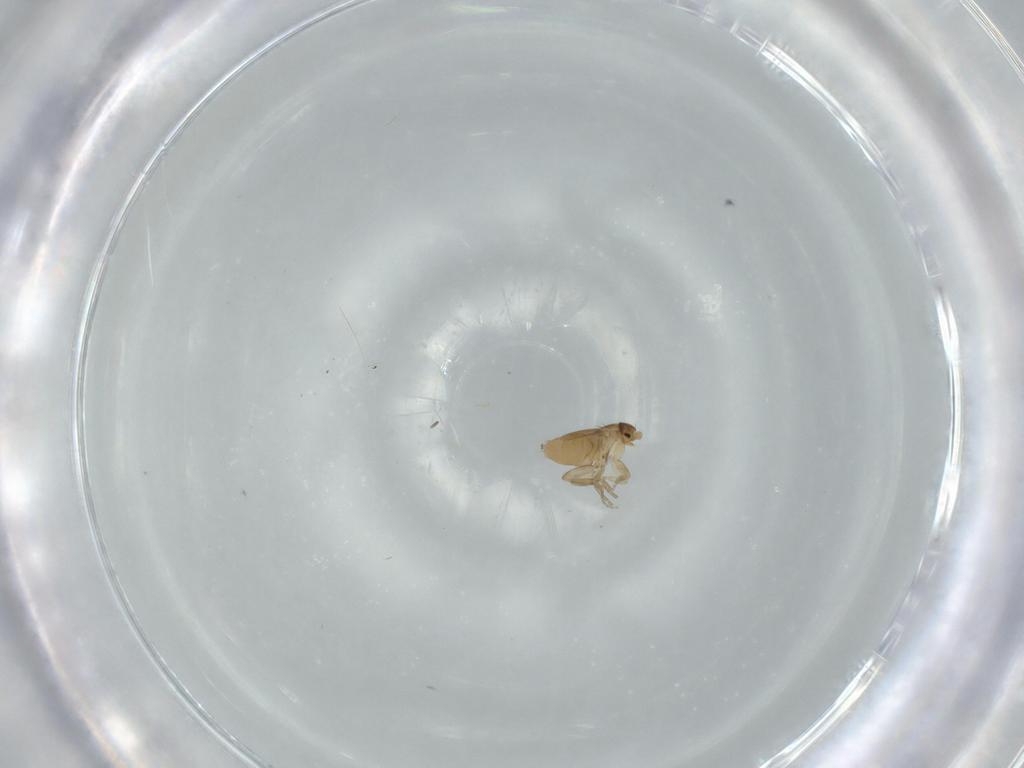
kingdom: Animalia
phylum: Arthropoda
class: Insecta
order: Diptera
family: Phoridae
